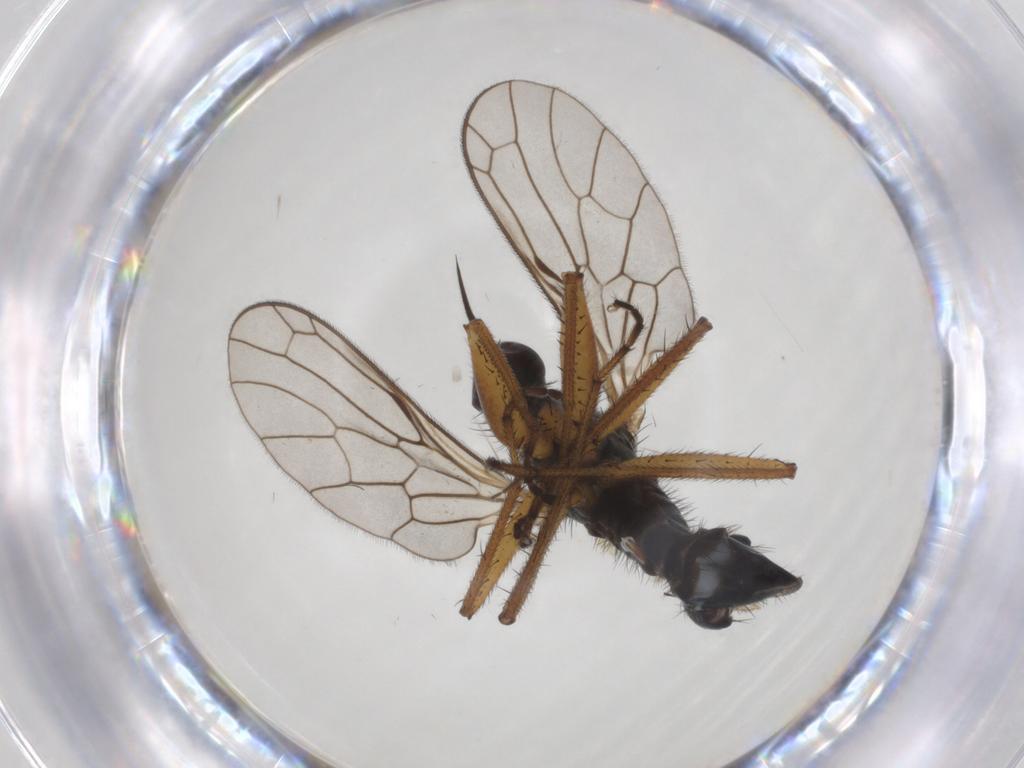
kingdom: Animalia
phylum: Arthropoda
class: Insecta
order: Diptera
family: Empididae
